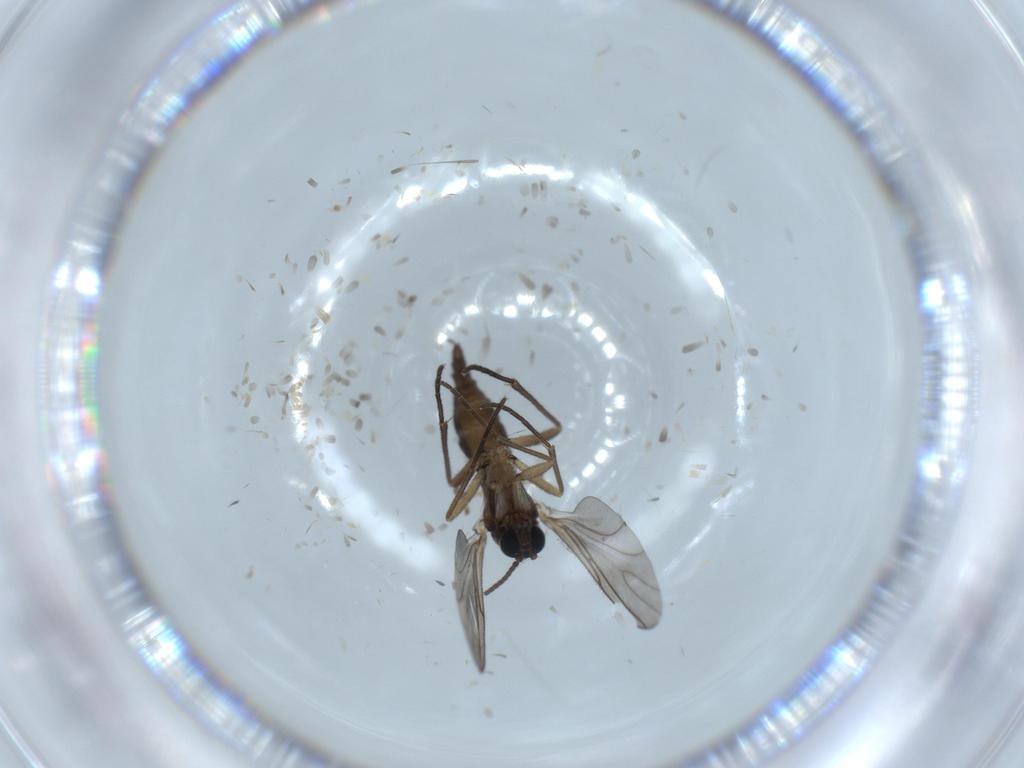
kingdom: Animalia
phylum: Arthropoda
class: Insecta
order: Diptera
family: Sciaridae
